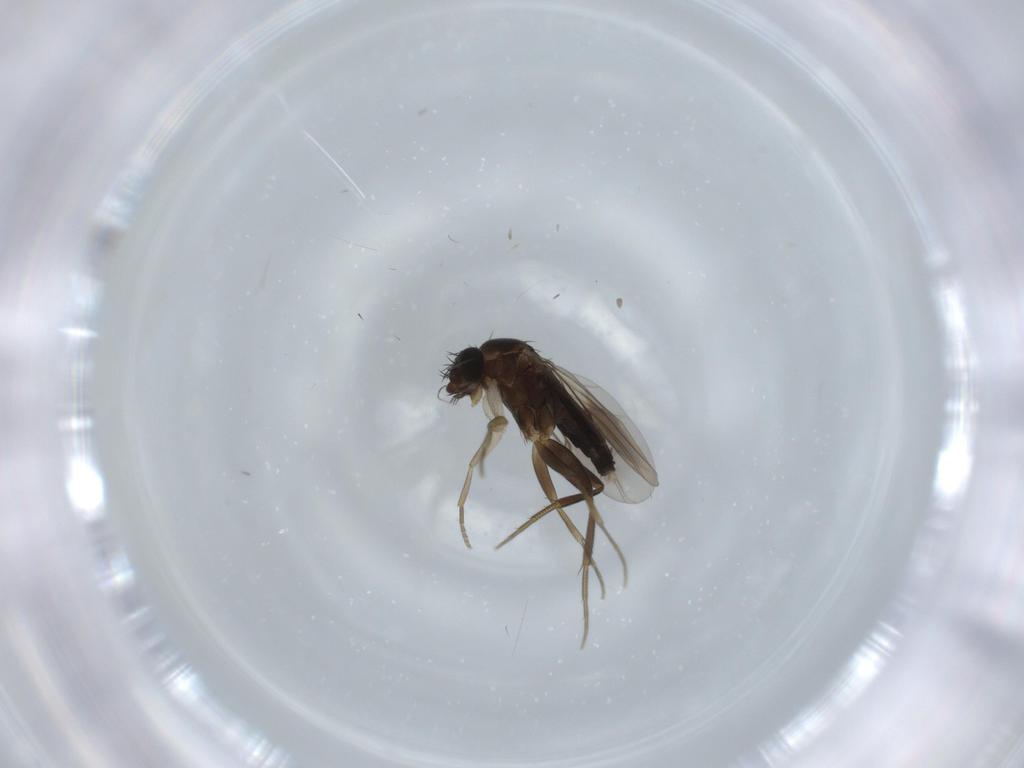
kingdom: Animalia
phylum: Arthropoda
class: Insecta
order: Diptera
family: Phoridae
